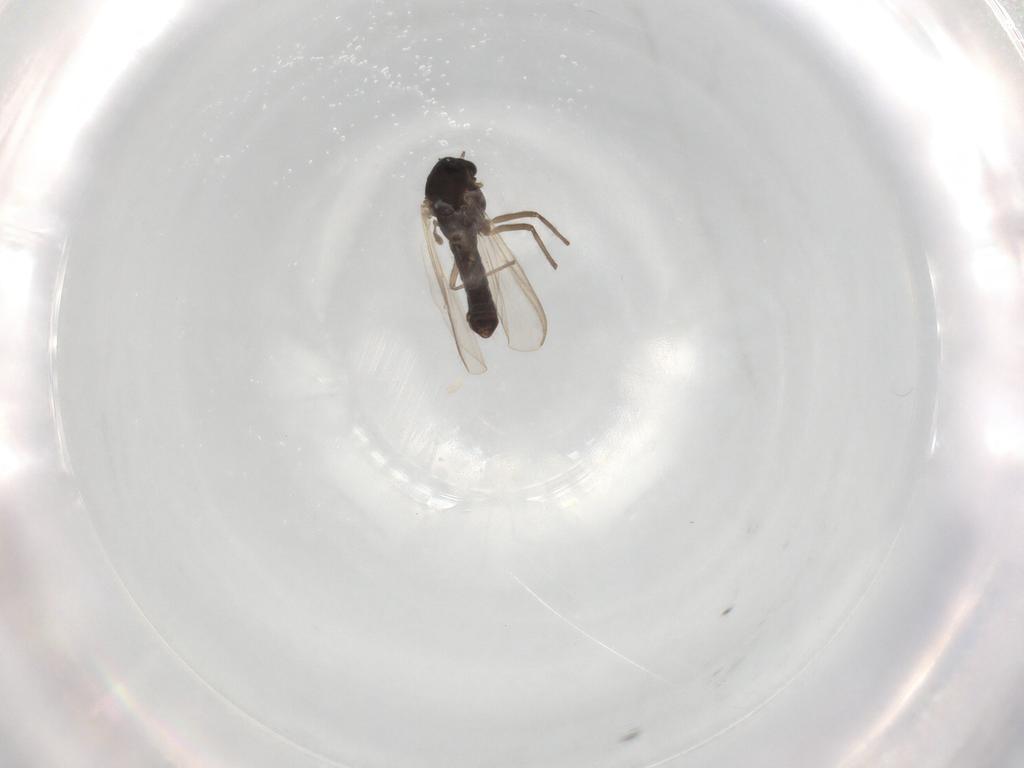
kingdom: Animalia
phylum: Arthropoda
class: Insecta
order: Diptera
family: Chironomidae
